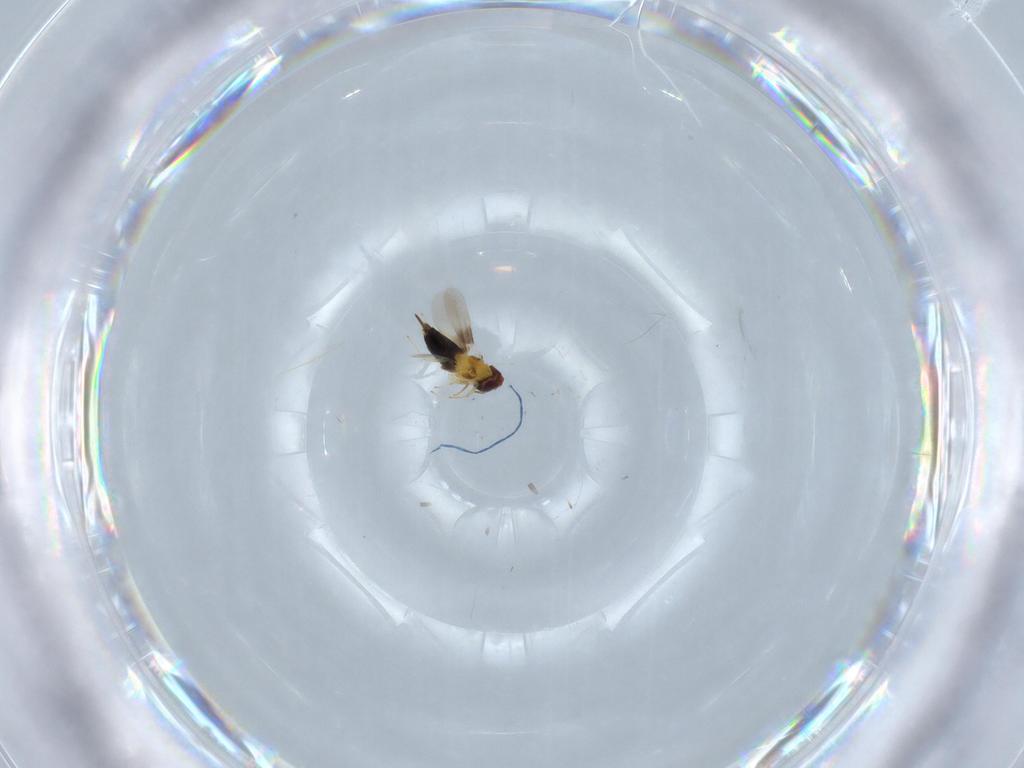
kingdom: Animalia
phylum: Arthropoda
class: Insecta
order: Hymenoptera
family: Aphelinidae
